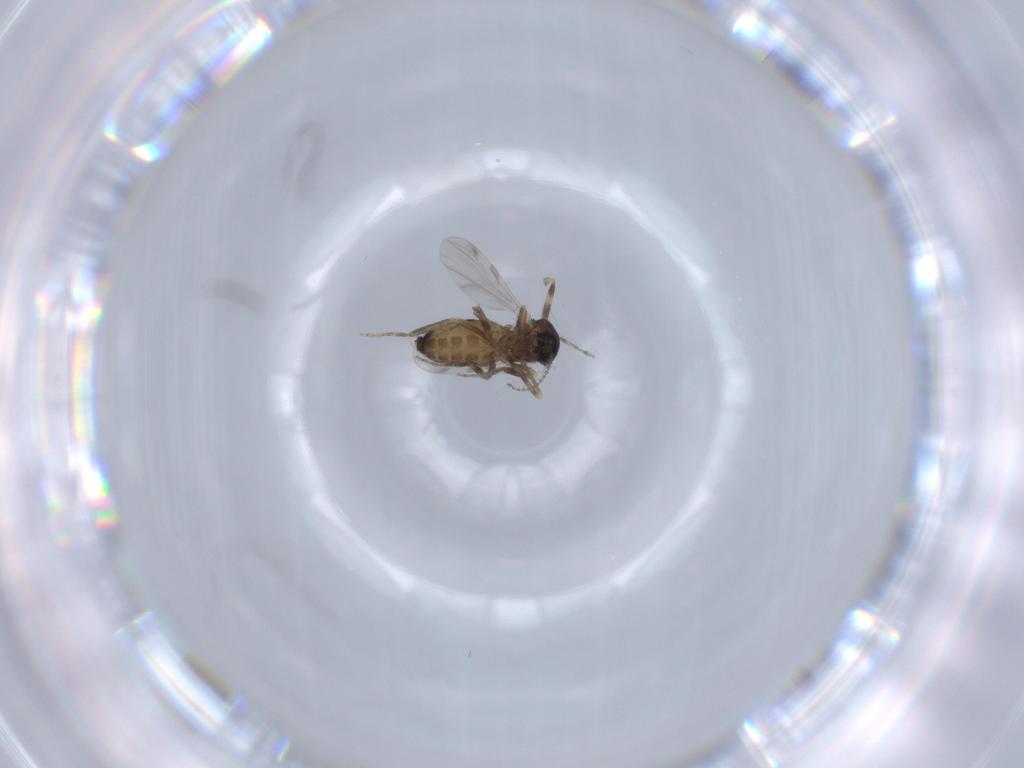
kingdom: Animalia
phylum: Arthropoda
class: Insecta
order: Diptera
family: Ceratopogonidae
